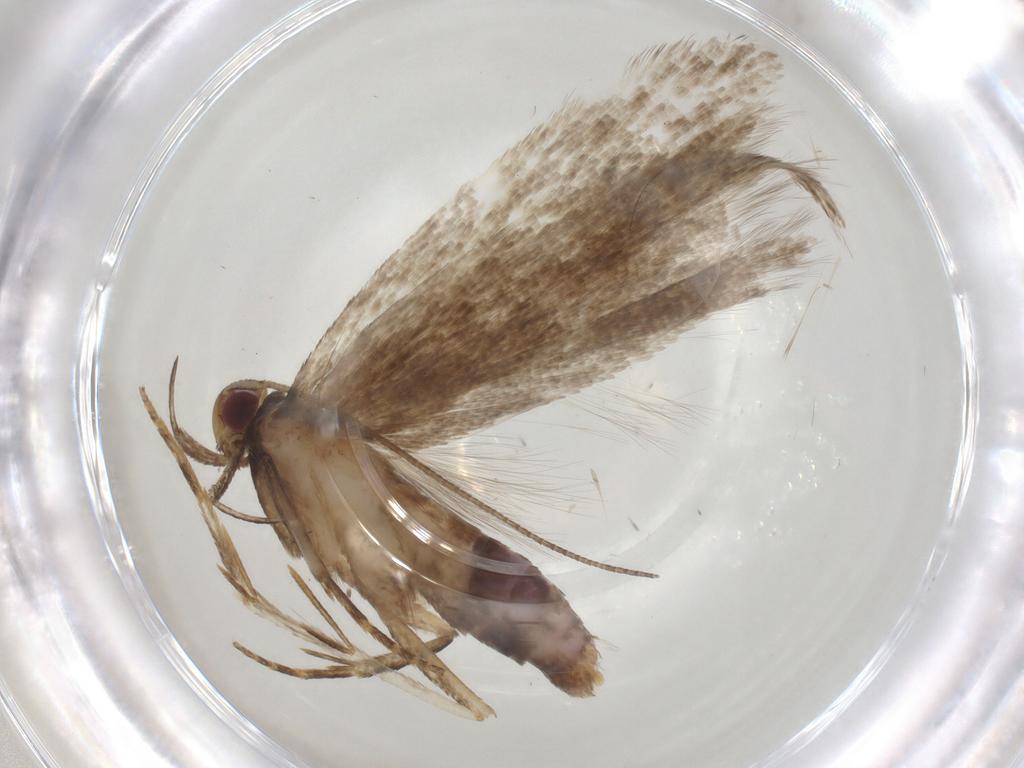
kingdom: Animalia
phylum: Arthropoda
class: Insecta
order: Lepidoptera
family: Gelechiidae
